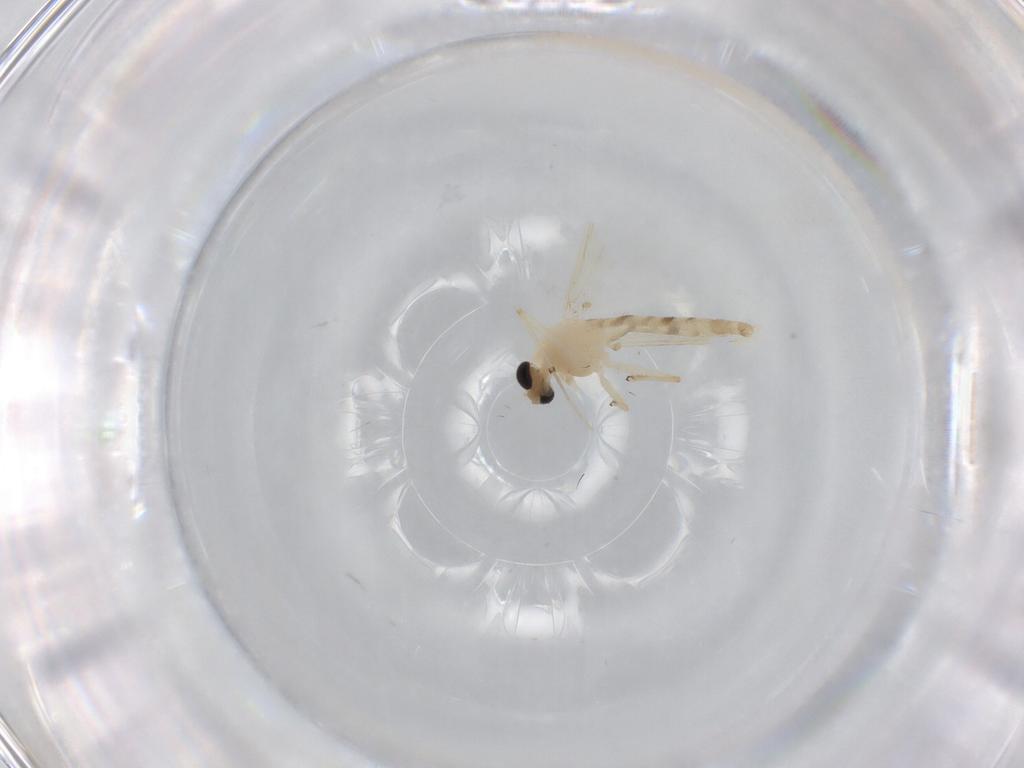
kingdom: Animalia
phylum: Arthropoda
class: Insecta
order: Diptera
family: Chironomidae
